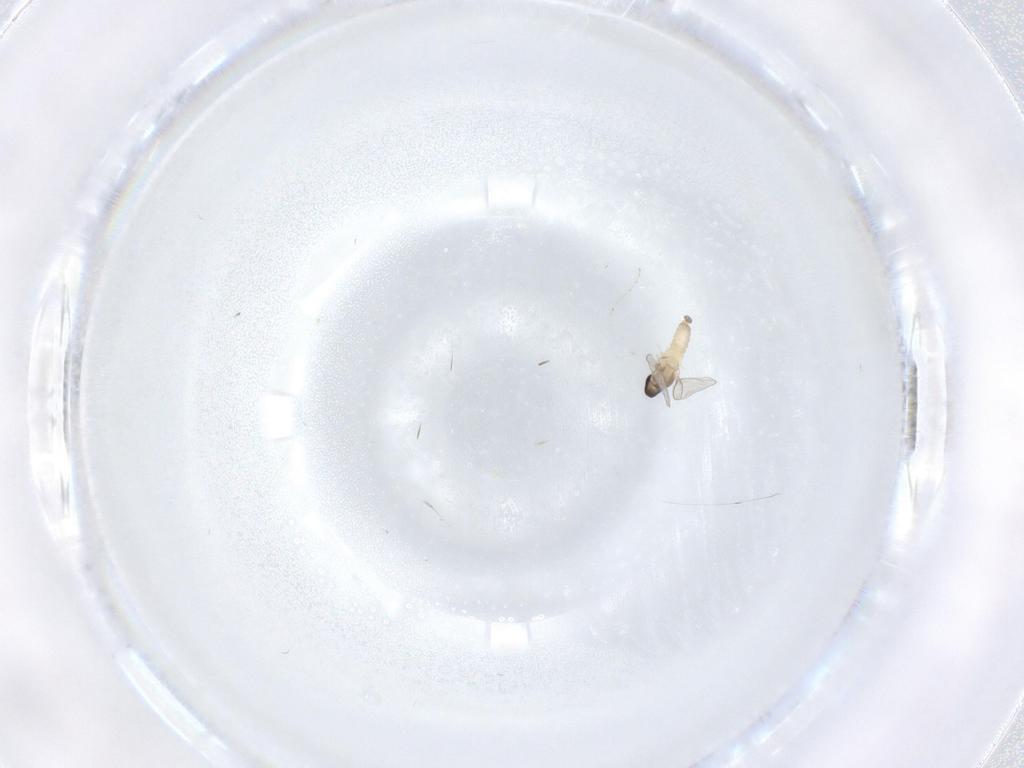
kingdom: Animalia
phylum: Arthropoda
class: Insecta
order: Diptera
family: Cecidomyiidae
